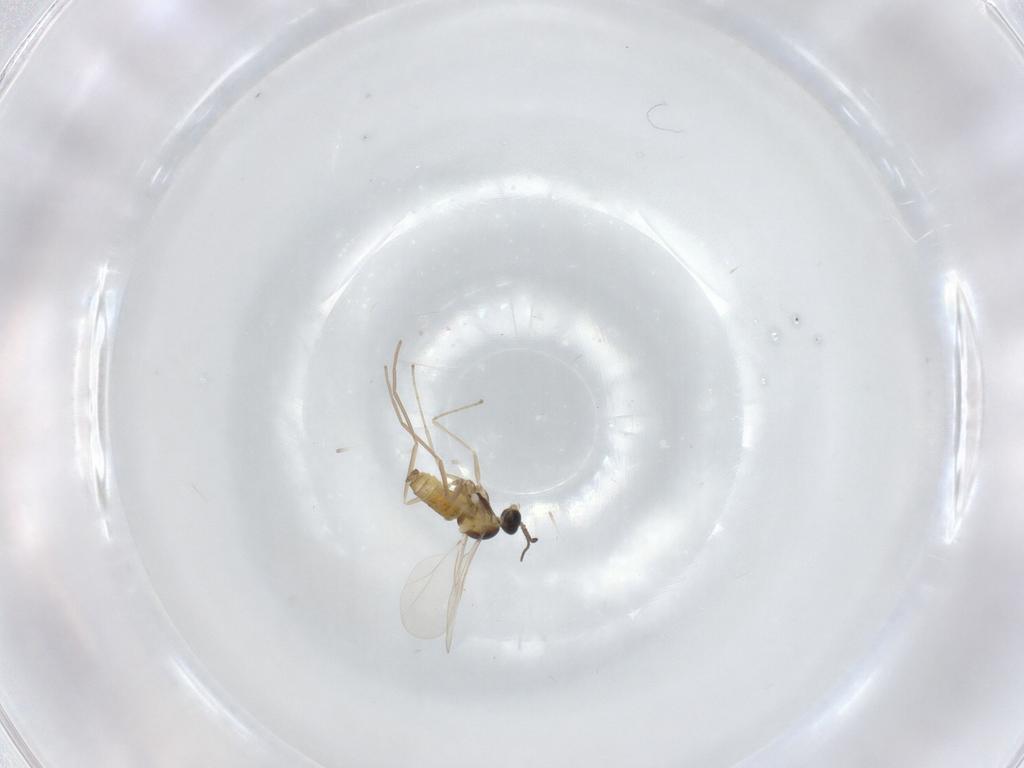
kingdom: Animalia
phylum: Arthropoda
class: Insecta
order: Diptera
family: Cecidomyiidae
